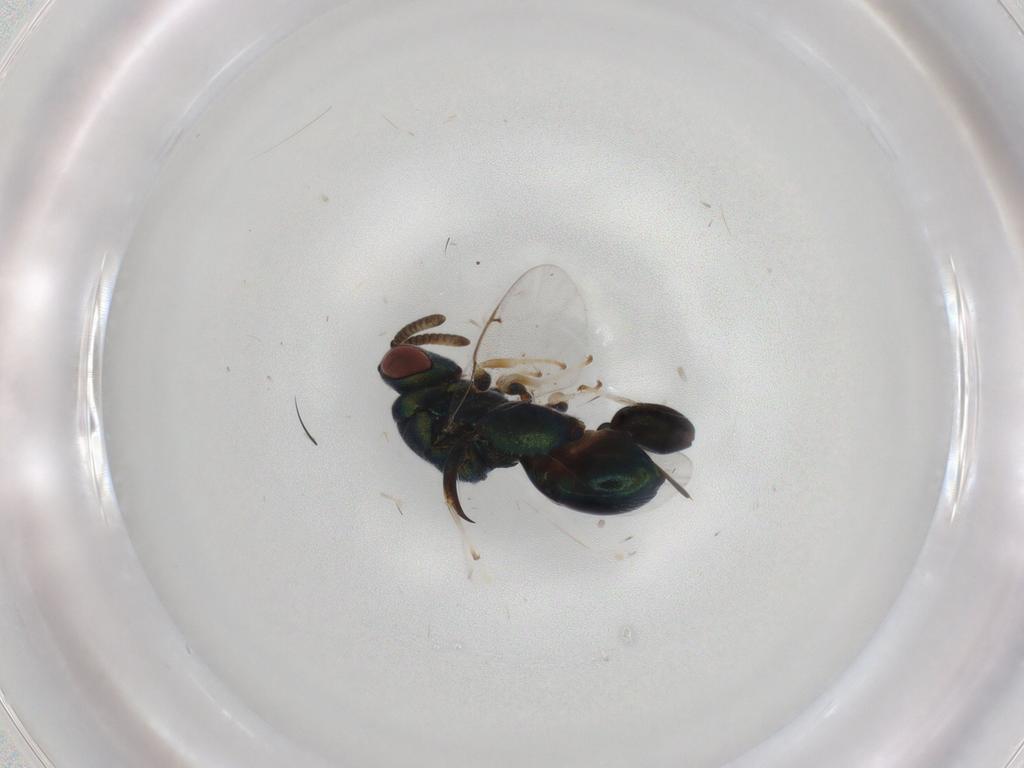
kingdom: Animalia
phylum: Arthropoda
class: Insecta
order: Hymenoptera
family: Torymidae
